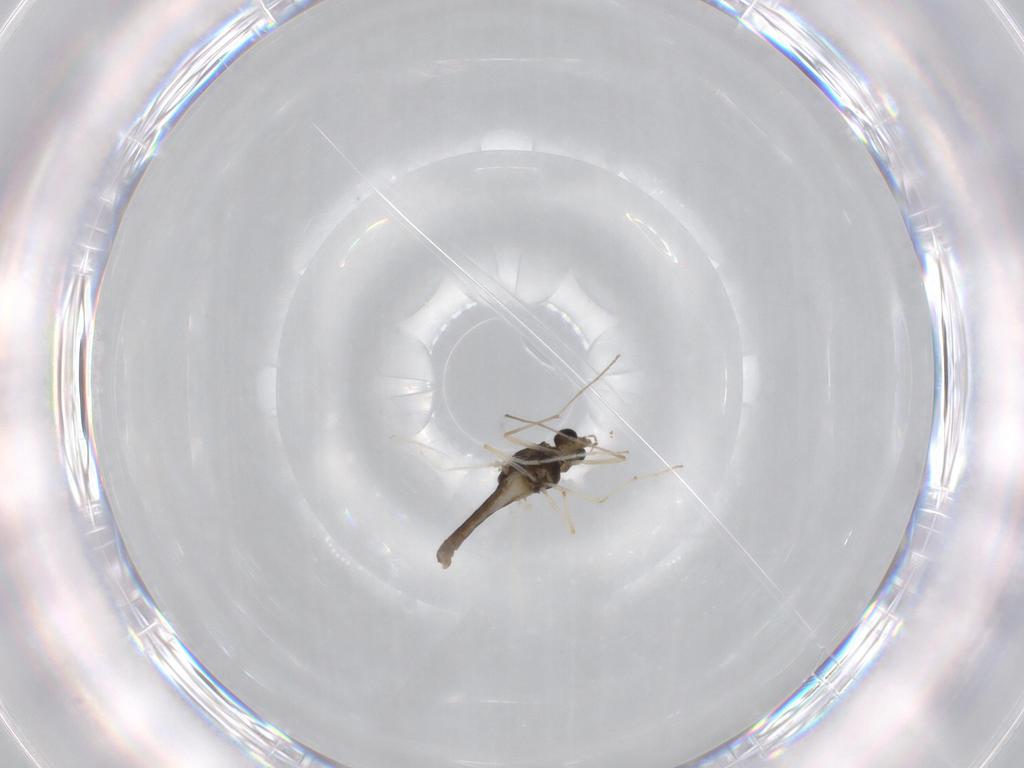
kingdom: Animalia
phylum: Arthropoda
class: Insecta
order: Diptera
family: Chironomidae
